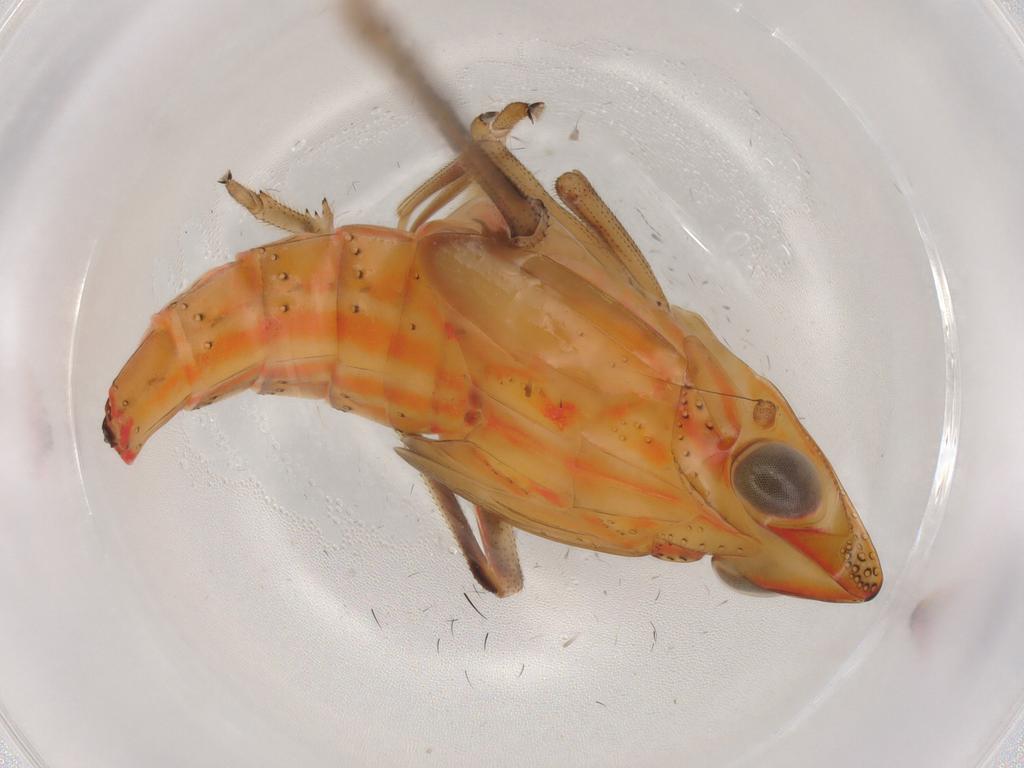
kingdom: Animalia
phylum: Arthropoda
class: Insecta
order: Hemiptera
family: Tropiduchidae
